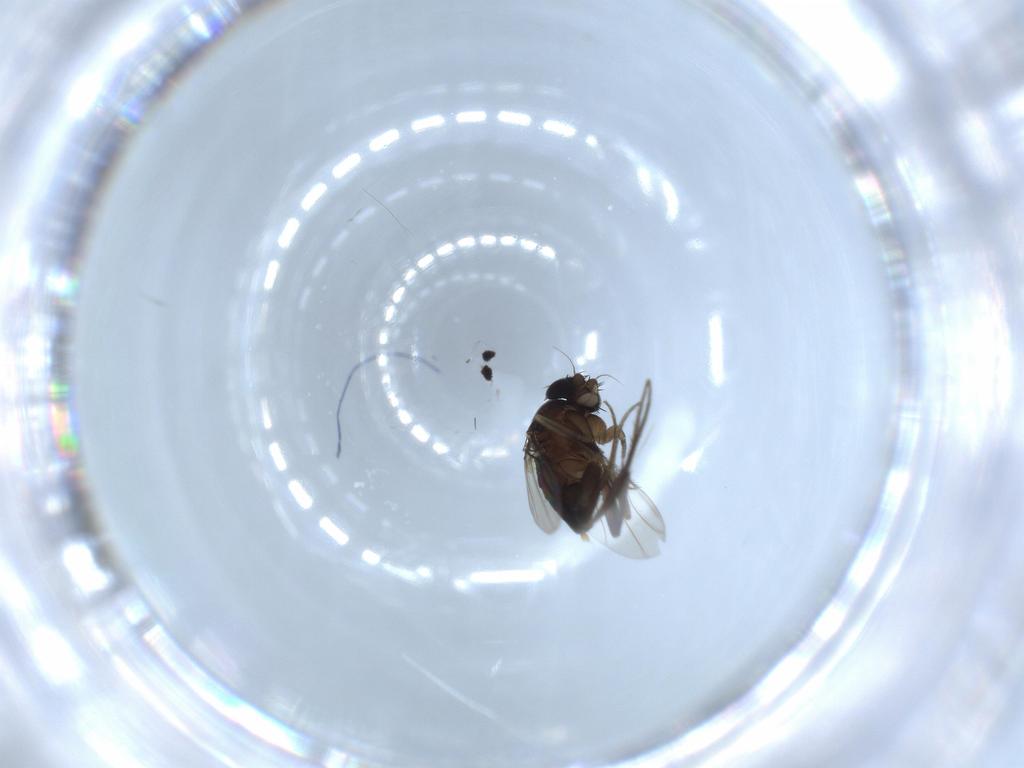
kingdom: Animalia
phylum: Arthropoda
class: Insecta
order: Diptera
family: Phoridae
